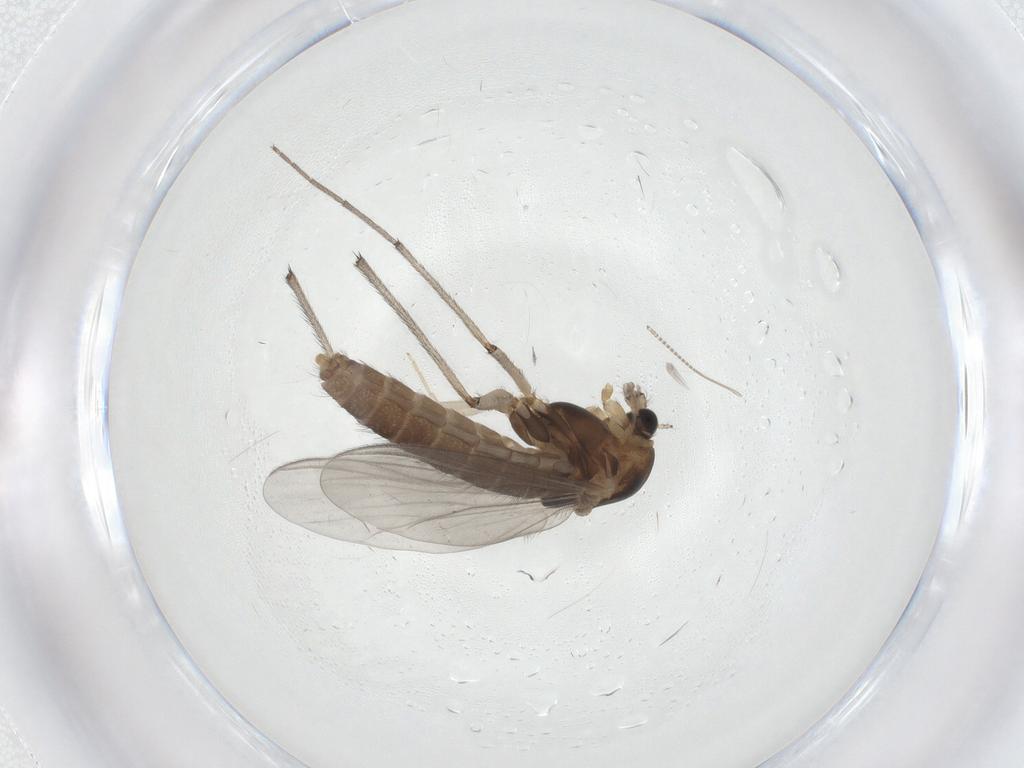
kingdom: Animalia
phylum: Arthropoda
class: Insecta
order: Diptera
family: Chironomidae
